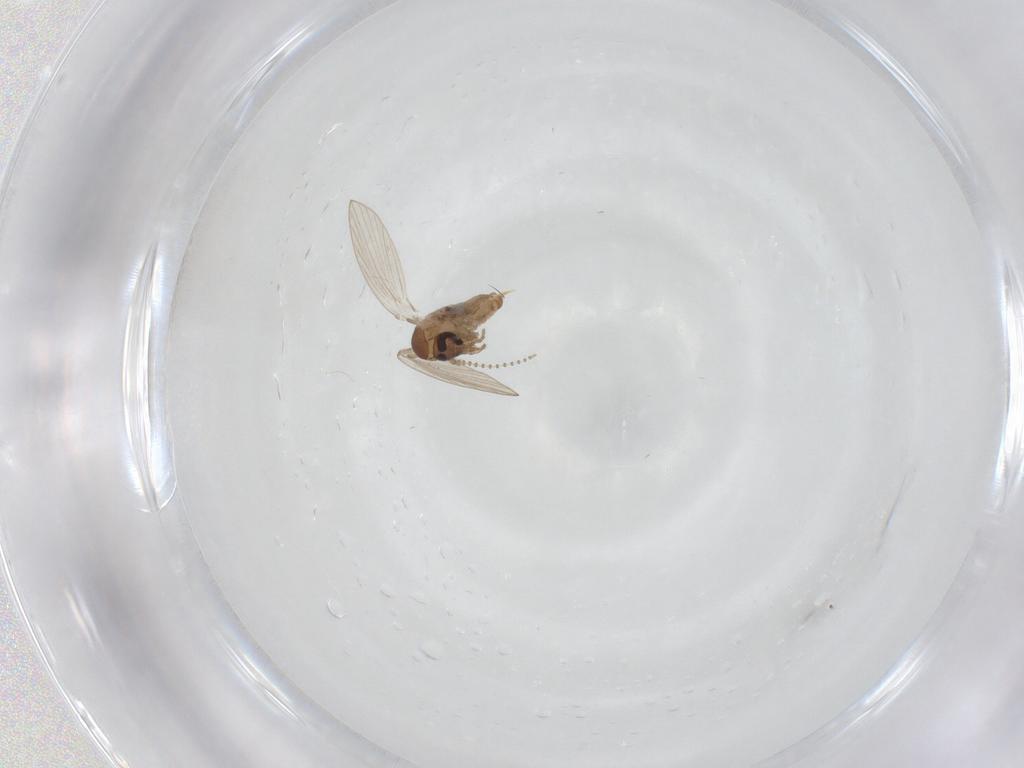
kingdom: Animalia
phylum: Arthropoda
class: Insecta
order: Diptera
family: Psychodidae
